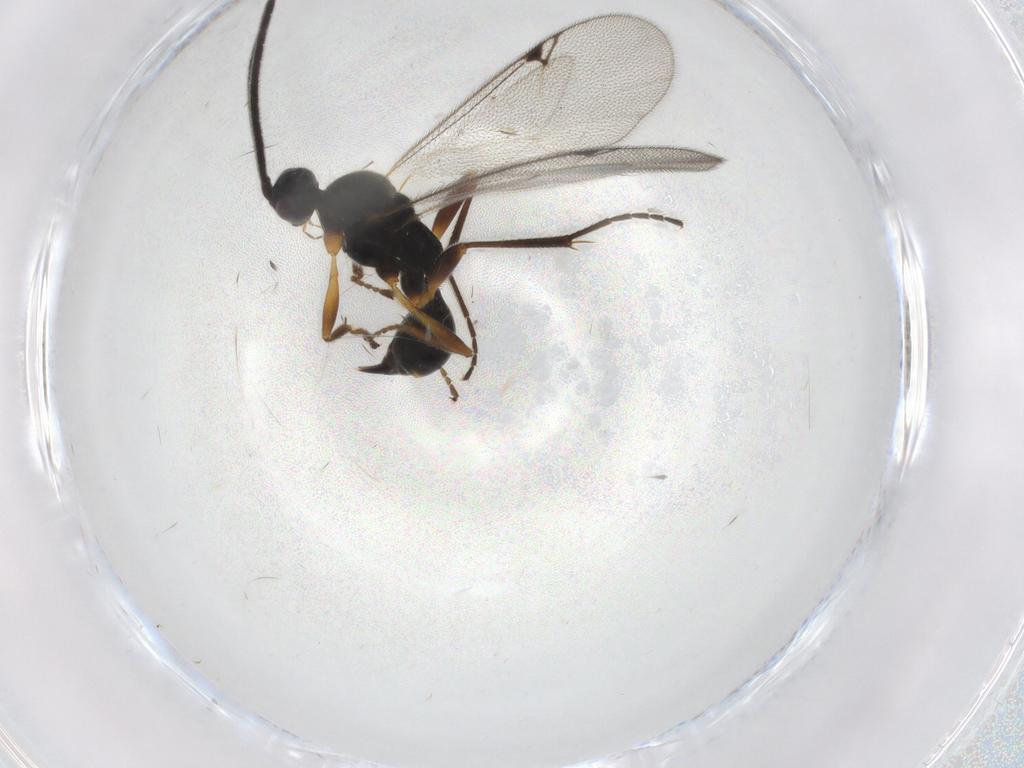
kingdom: Animalia
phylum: Arthropoda
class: Insecta
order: Hymenoptera
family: Proctotrupidae
